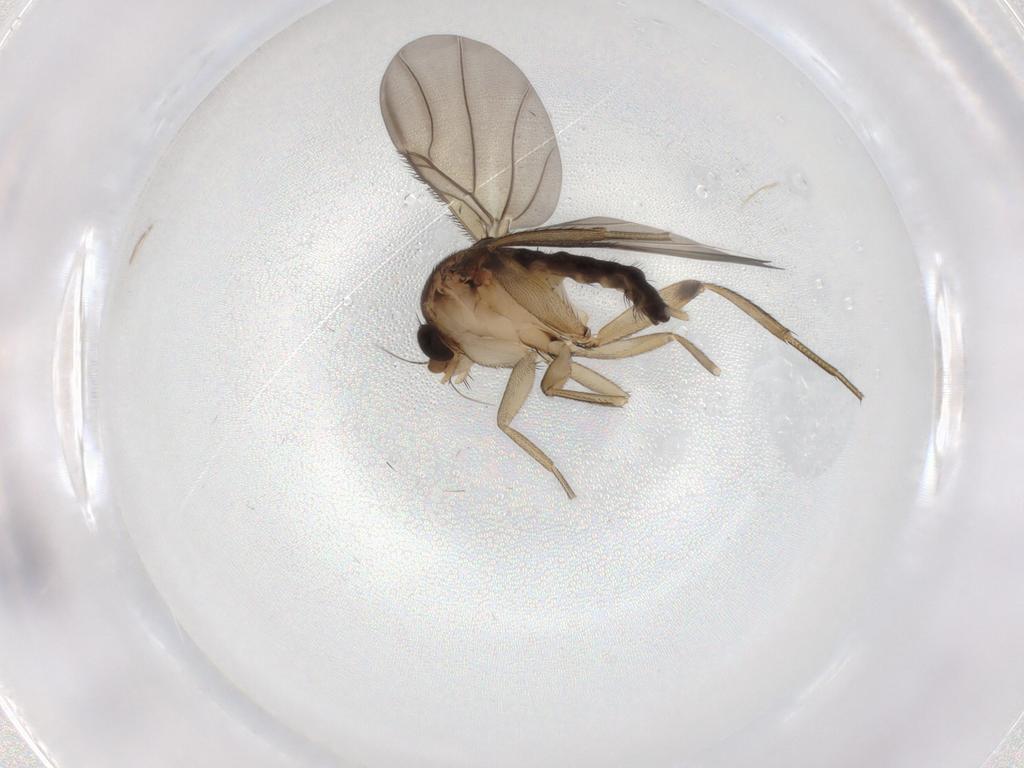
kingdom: Animalia
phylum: Arthropoda
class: Insecta
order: Diptera
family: Phoridae
